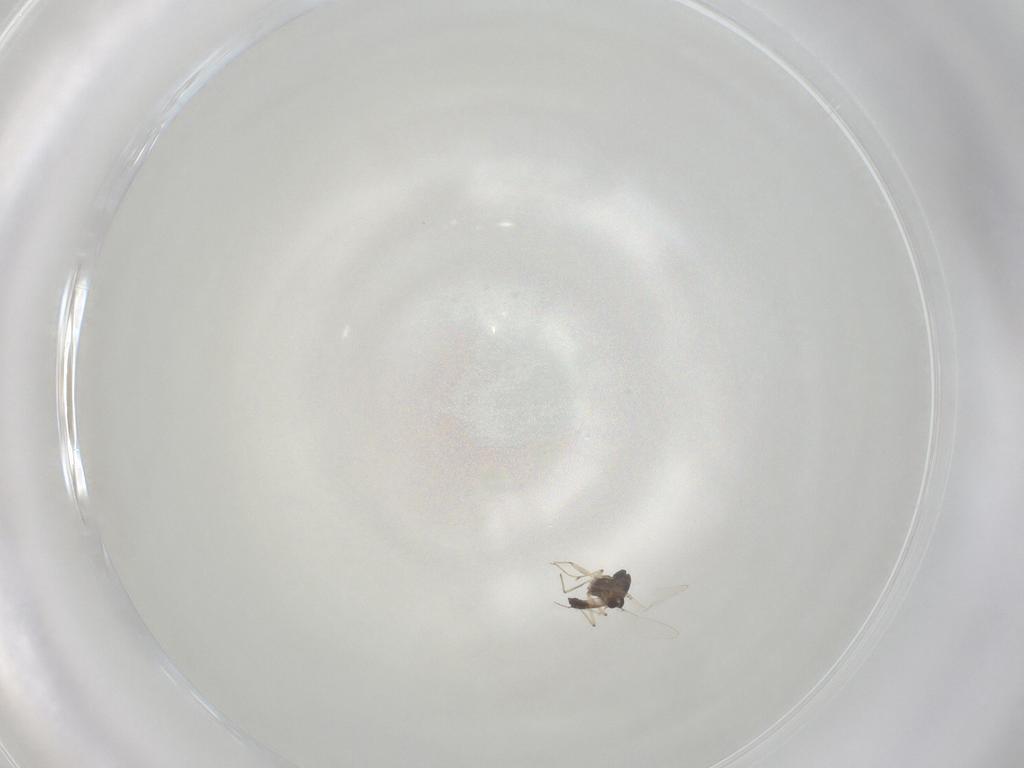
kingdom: Animalia
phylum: Arthropoda
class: Insecta
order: Diptera
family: Chironomidae
